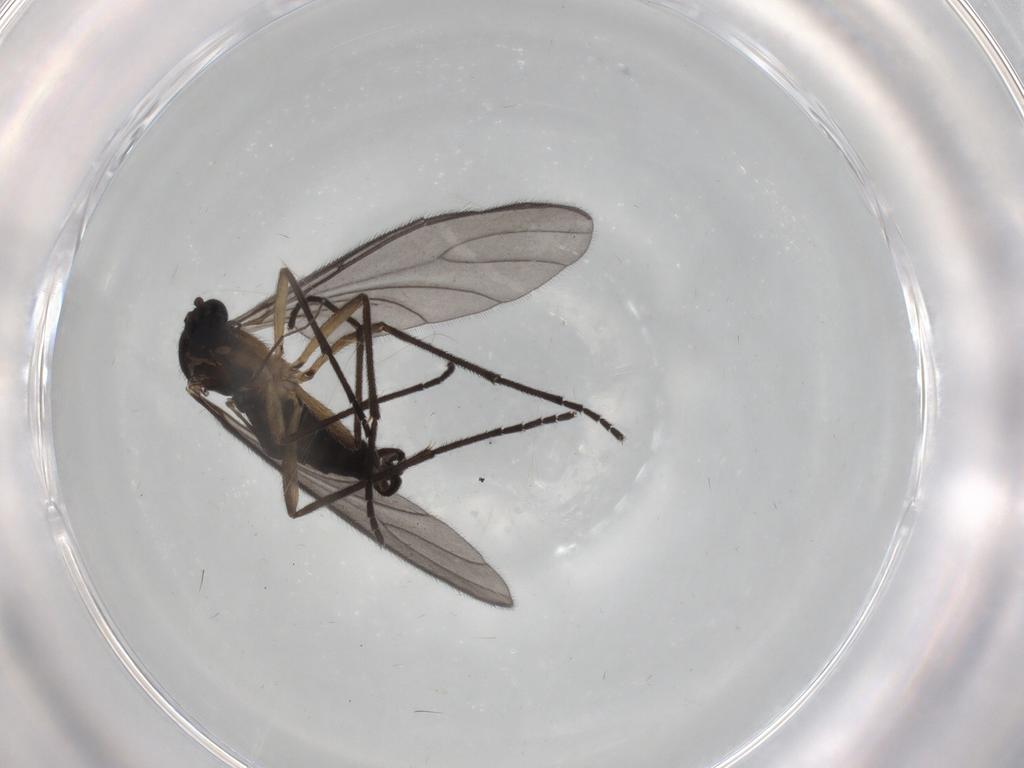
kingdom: Animalia
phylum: Arthropoda
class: Insecta
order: Diptera
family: Sciaridae
